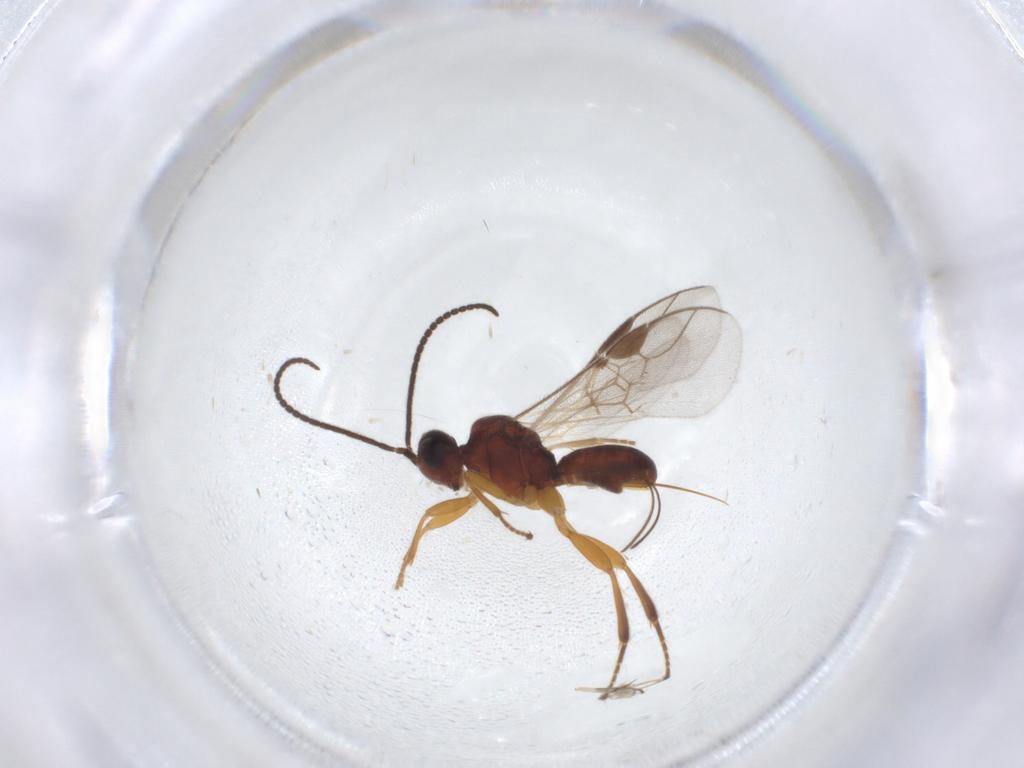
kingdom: Animalia
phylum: Arthropoda
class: Insecta
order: Hymenoptera
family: Braconidae
